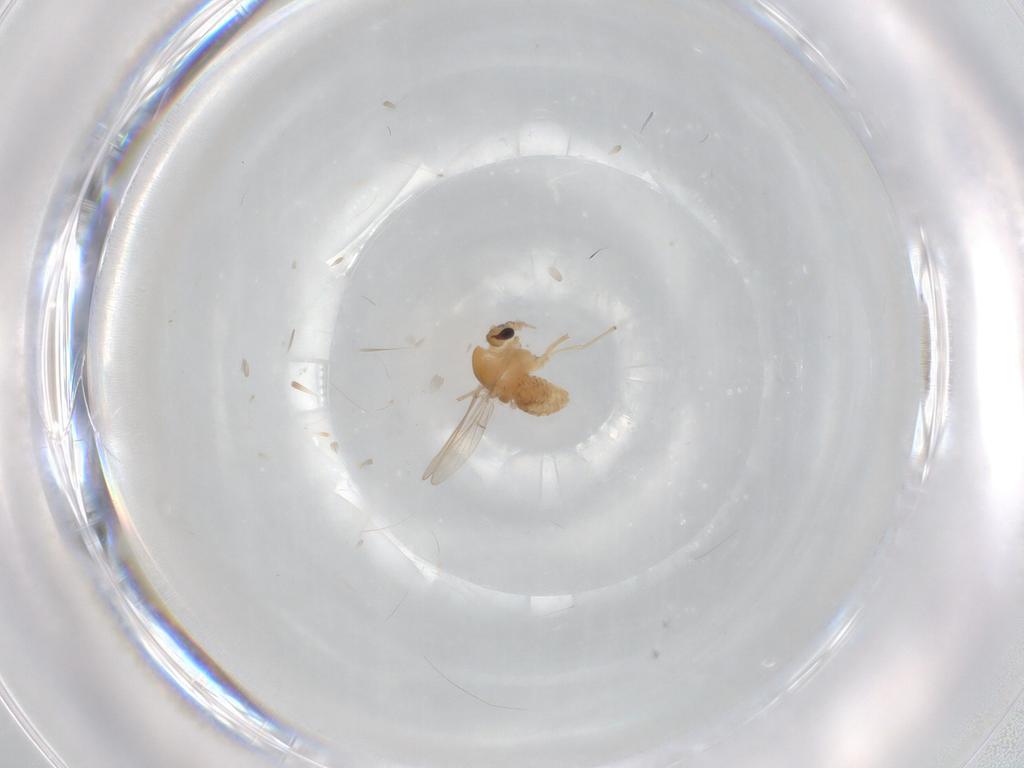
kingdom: Animalia
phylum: Arthropoda
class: Insecta
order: Diptera
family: Chironomidae
